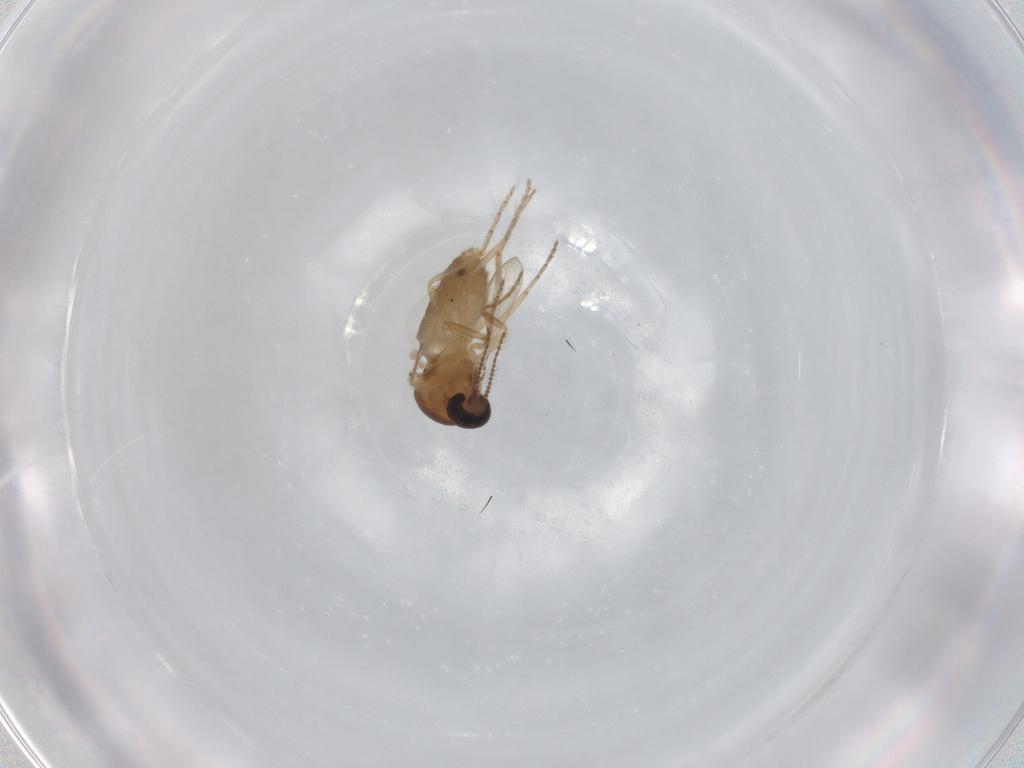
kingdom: Animalia
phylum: Arthropoda
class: Insecta
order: Diptera
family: Ceratopogonidae
